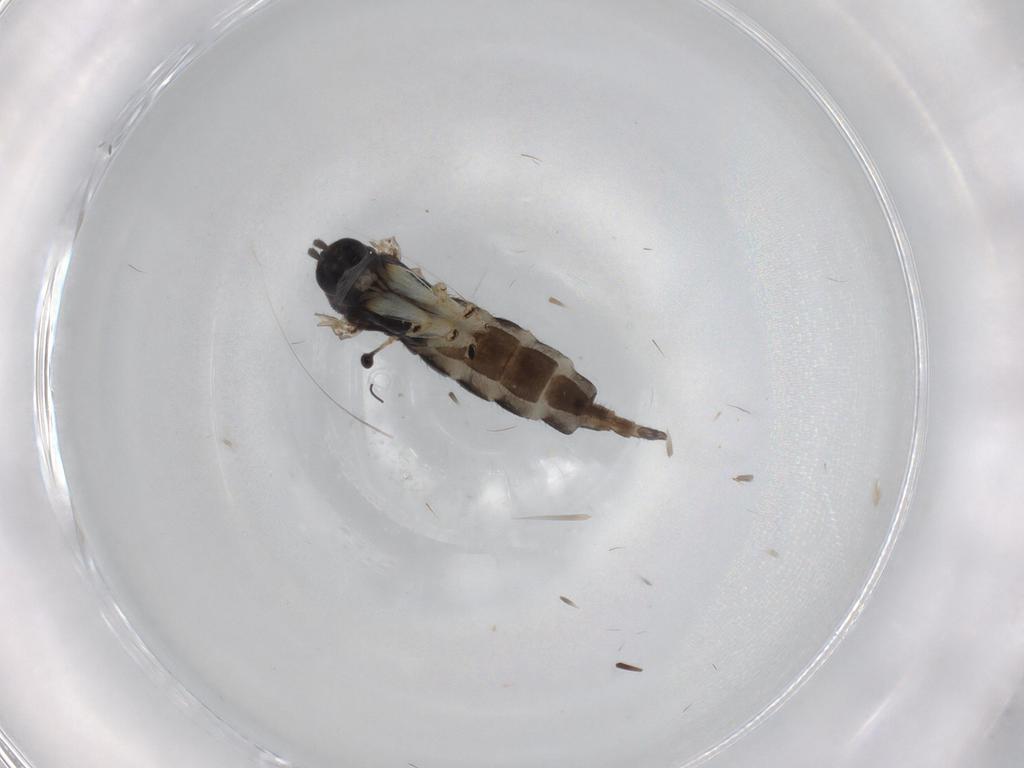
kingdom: Animalia
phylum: Arthropoda
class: Insecta
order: Diptera
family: Sciaridae
